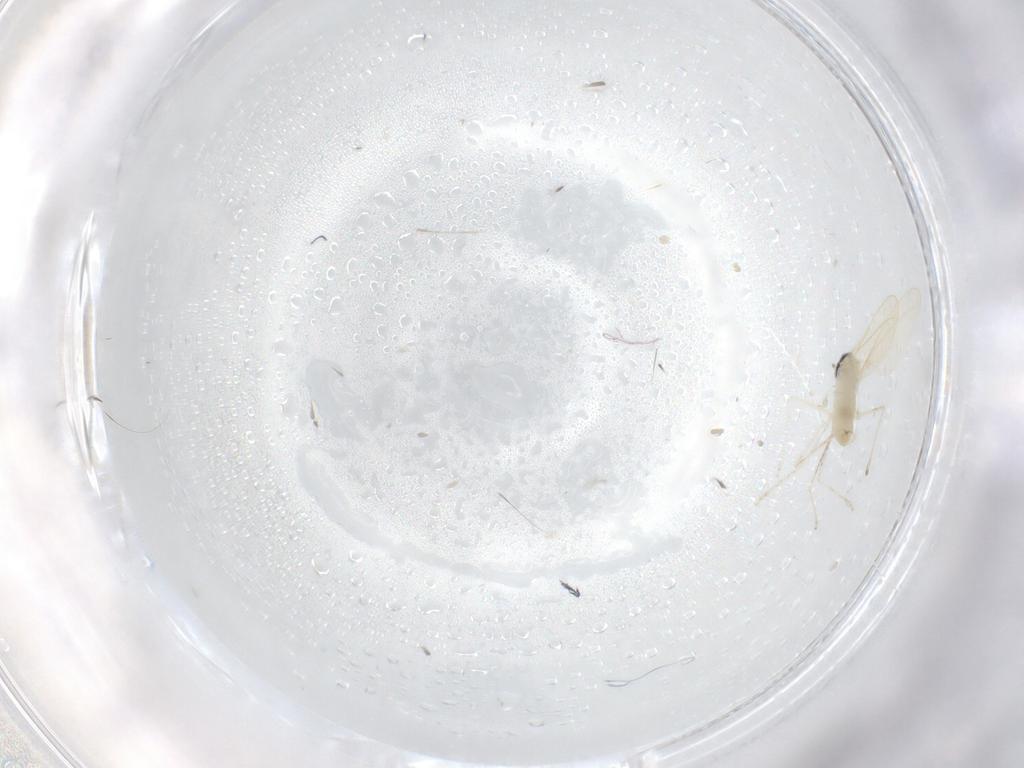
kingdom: Animalia
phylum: Arthropoda
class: Insecta
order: Diptera
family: Cecidomyiidae
